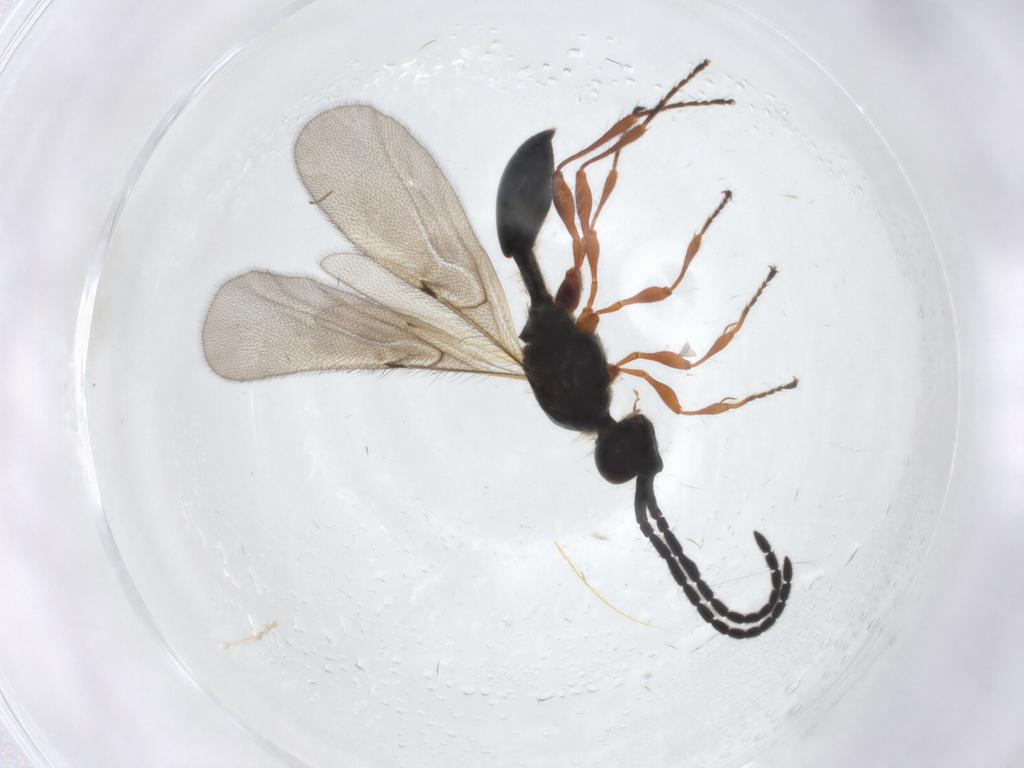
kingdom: Animalia
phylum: Arthropoda
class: Insecta
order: Hymenoptera
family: Diapriidae
